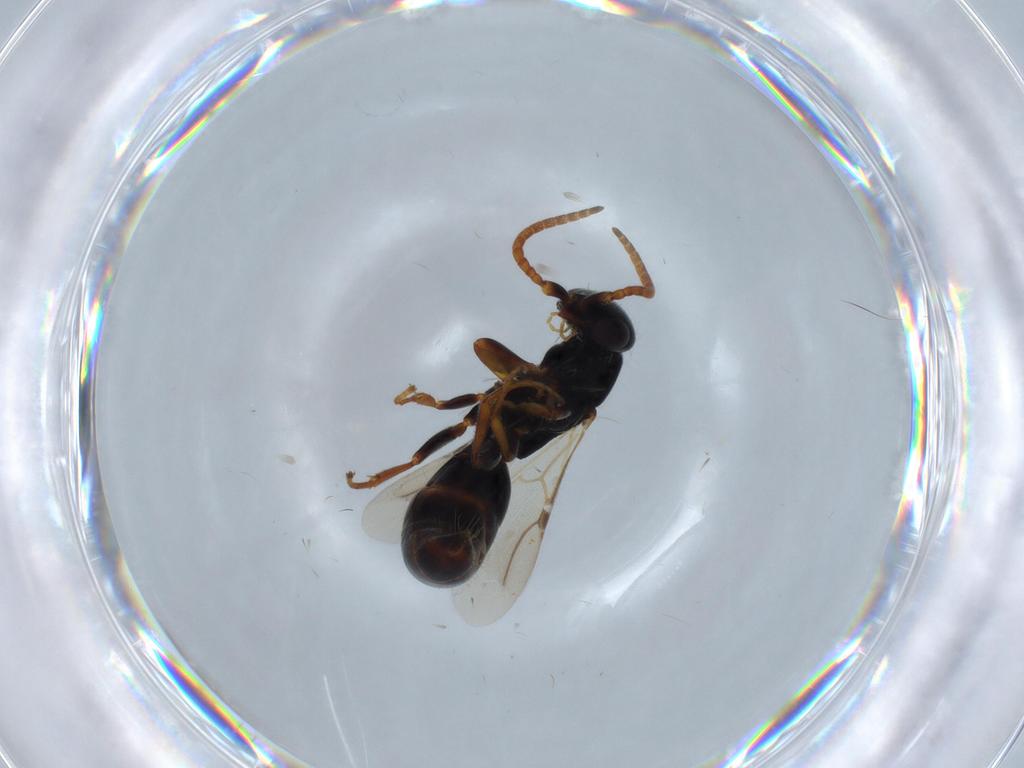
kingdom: Animalia
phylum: Arthropoda
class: Insecta
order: Hymenoptera
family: Bethylidae
